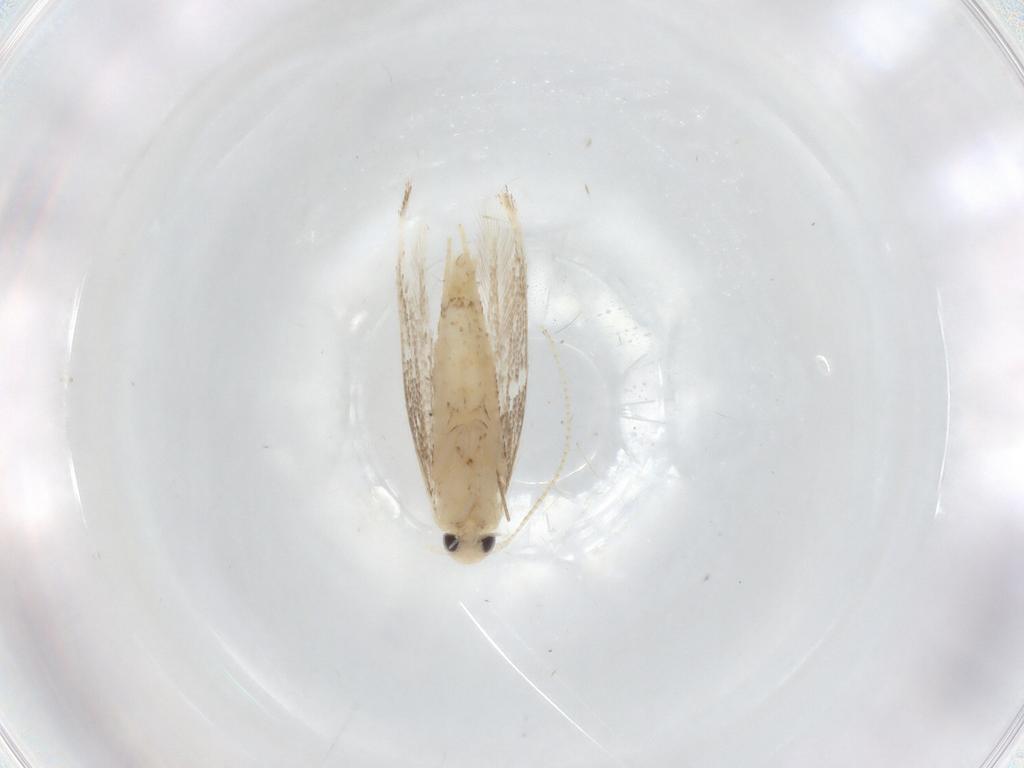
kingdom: Animalia
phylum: Arthropoda
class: Insecta
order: Lepidoptera
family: Gracillariidae
